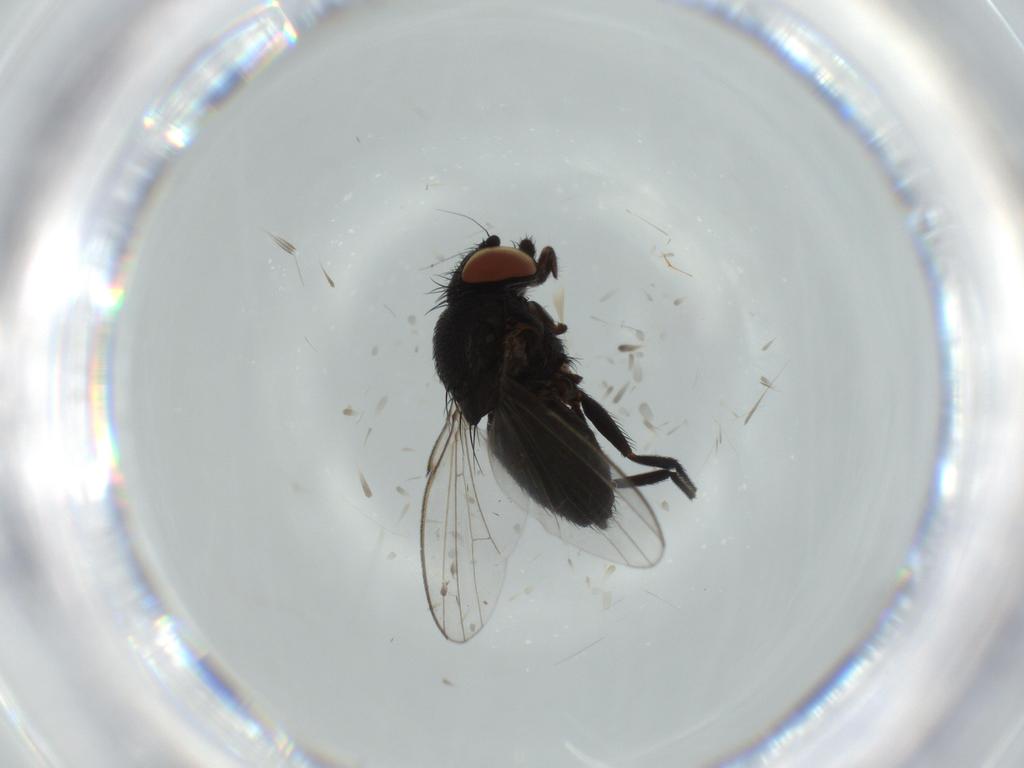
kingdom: Animalia
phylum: Arthropoda
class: Insecta
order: Diptera
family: Milichiidae
